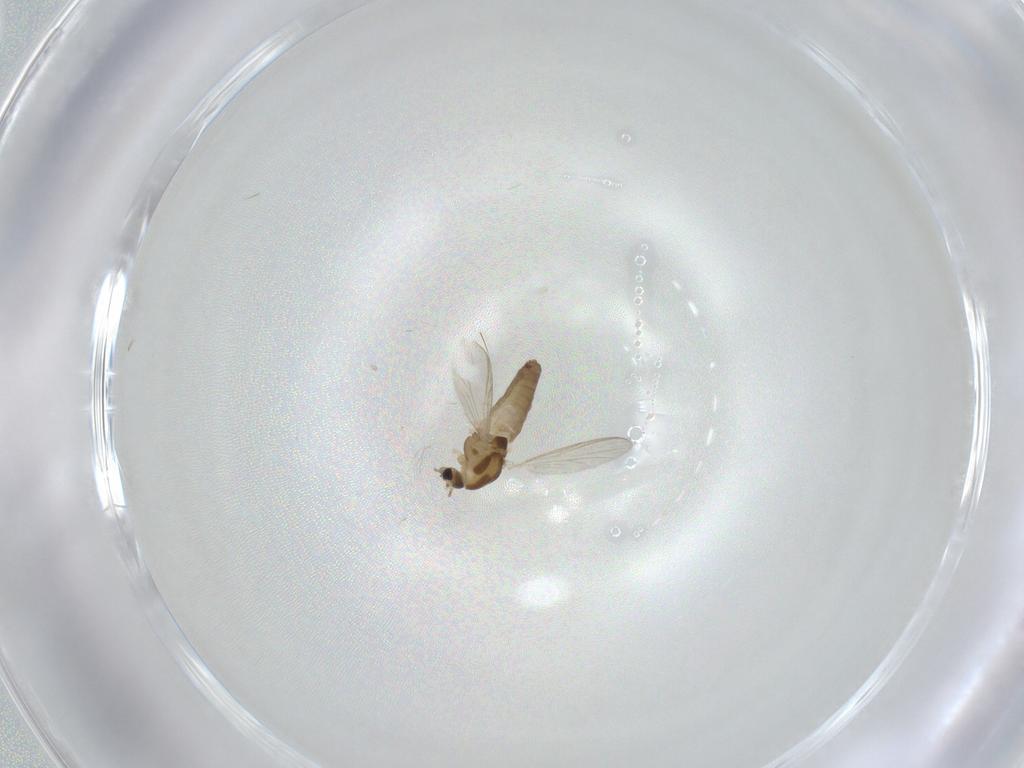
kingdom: Animalia
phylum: Arthropoda
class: Insecta
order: Diptera
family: Chironomidae
